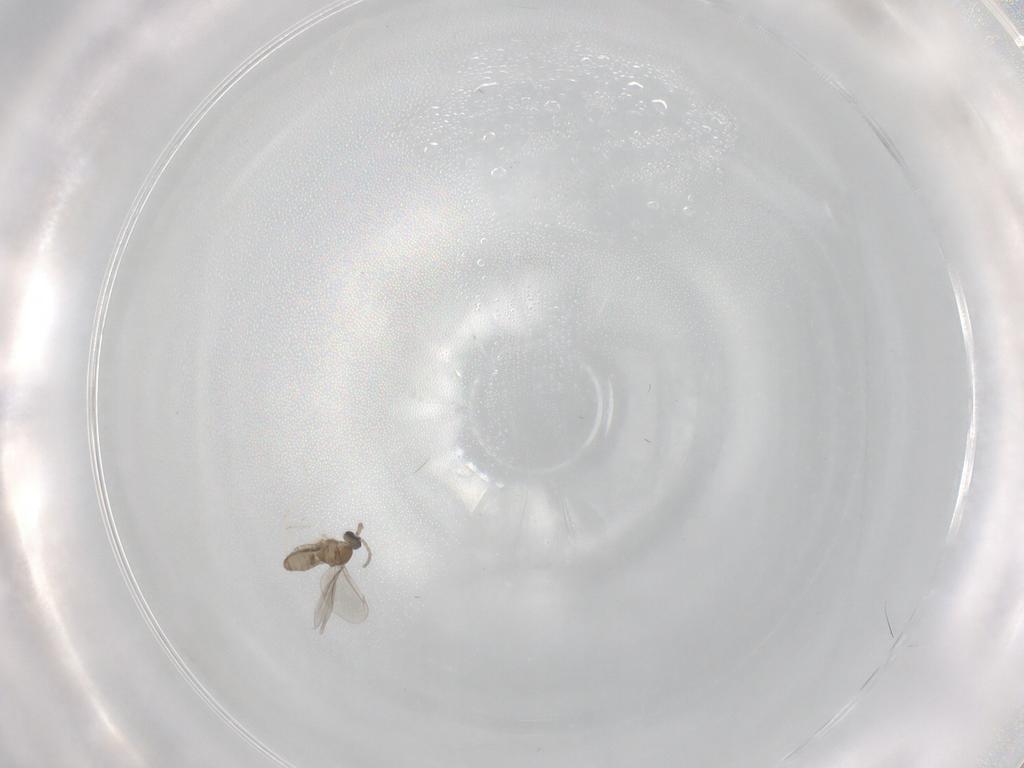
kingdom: Animalia
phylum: Arthropoda
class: Insecta
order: Diptera
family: Cecidomyiidae
